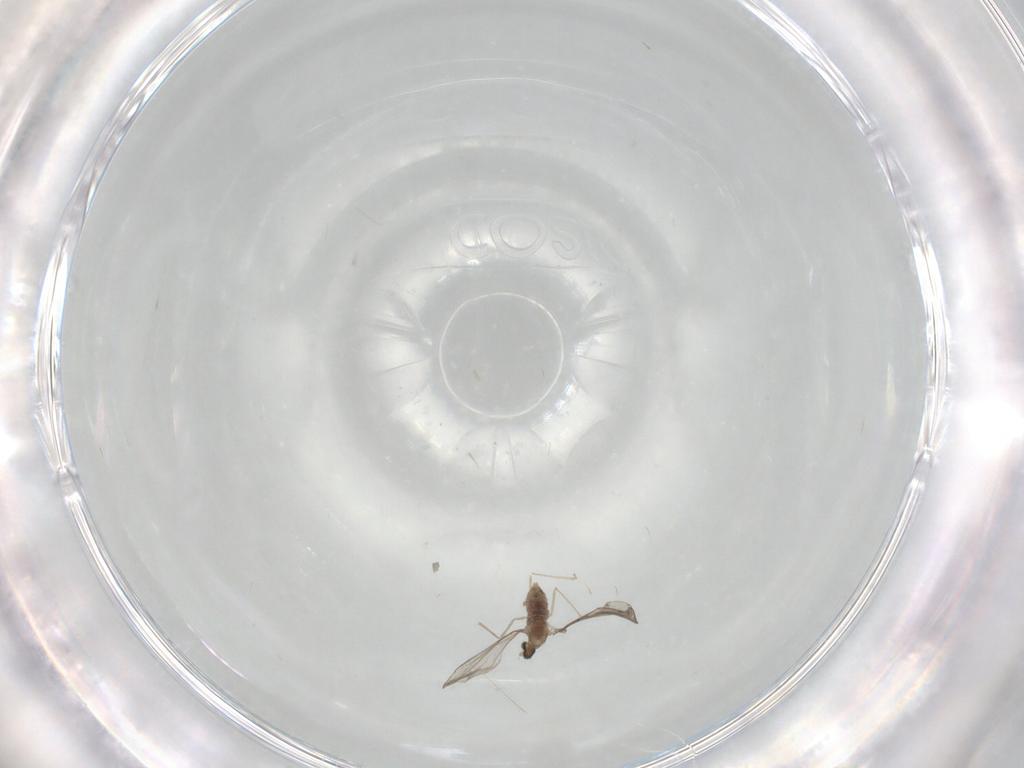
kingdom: Animalia
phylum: Arthropoda
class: Insecta
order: Diptera
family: Cecidomyiidae
